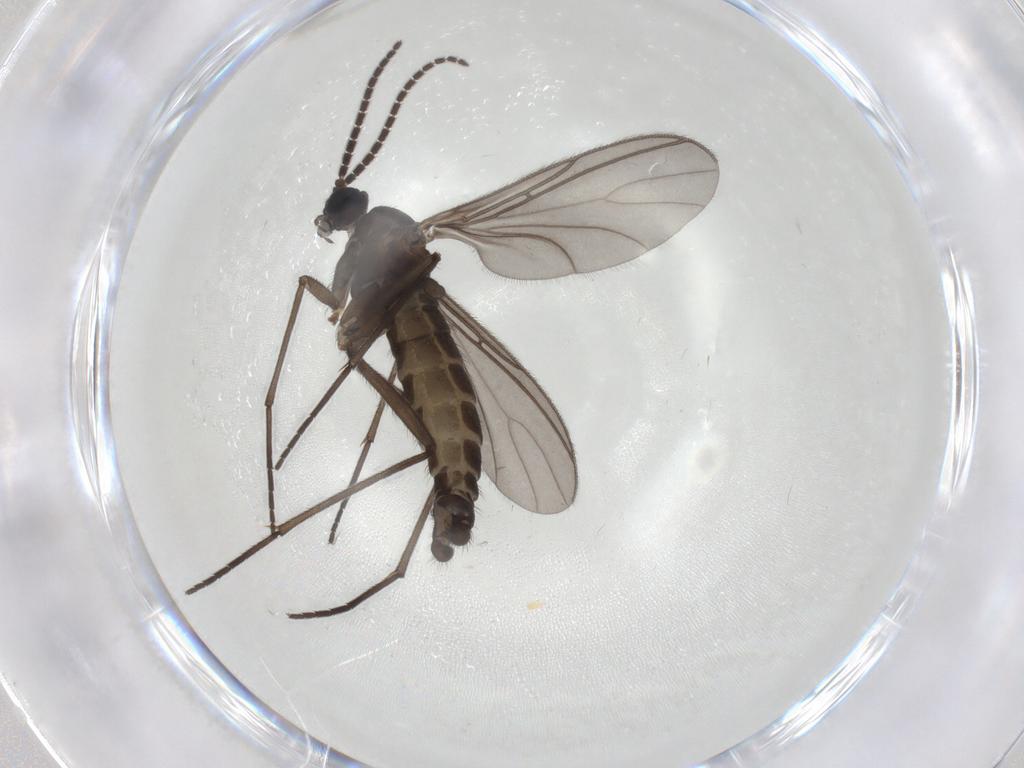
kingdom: Animalia
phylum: Arthropoda
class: Insecta
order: Diptera
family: Sciaridae
